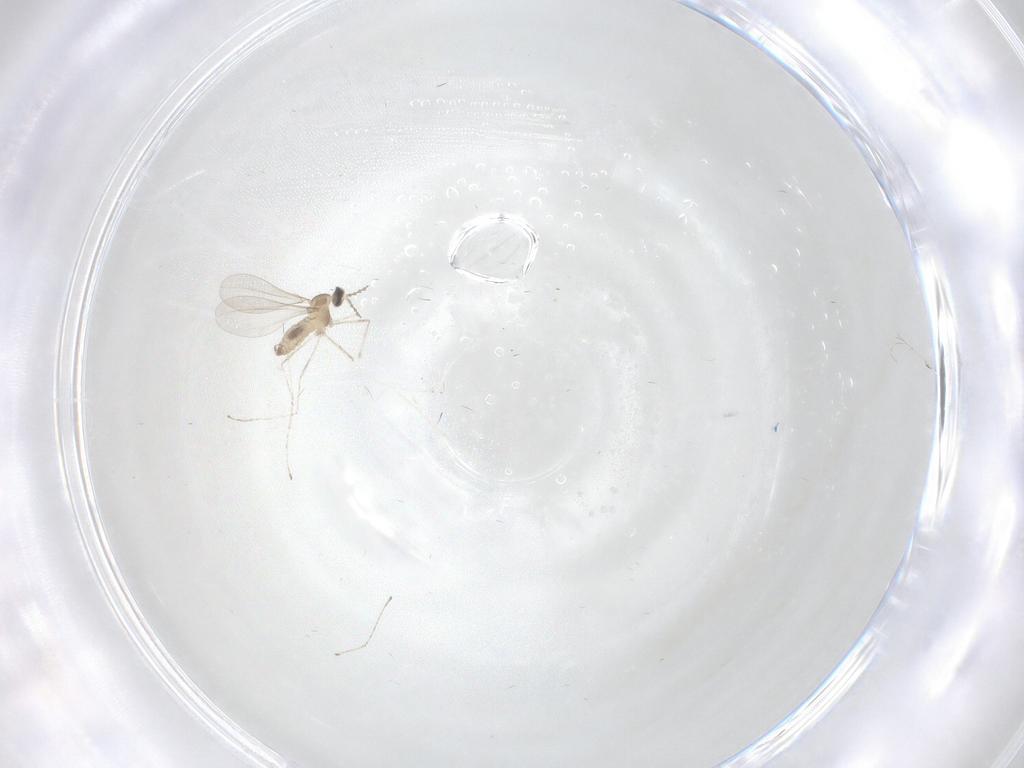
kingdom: Animalia
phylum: Arthropoda
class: Insecta
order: Diptera
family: Cecidomyiidae
